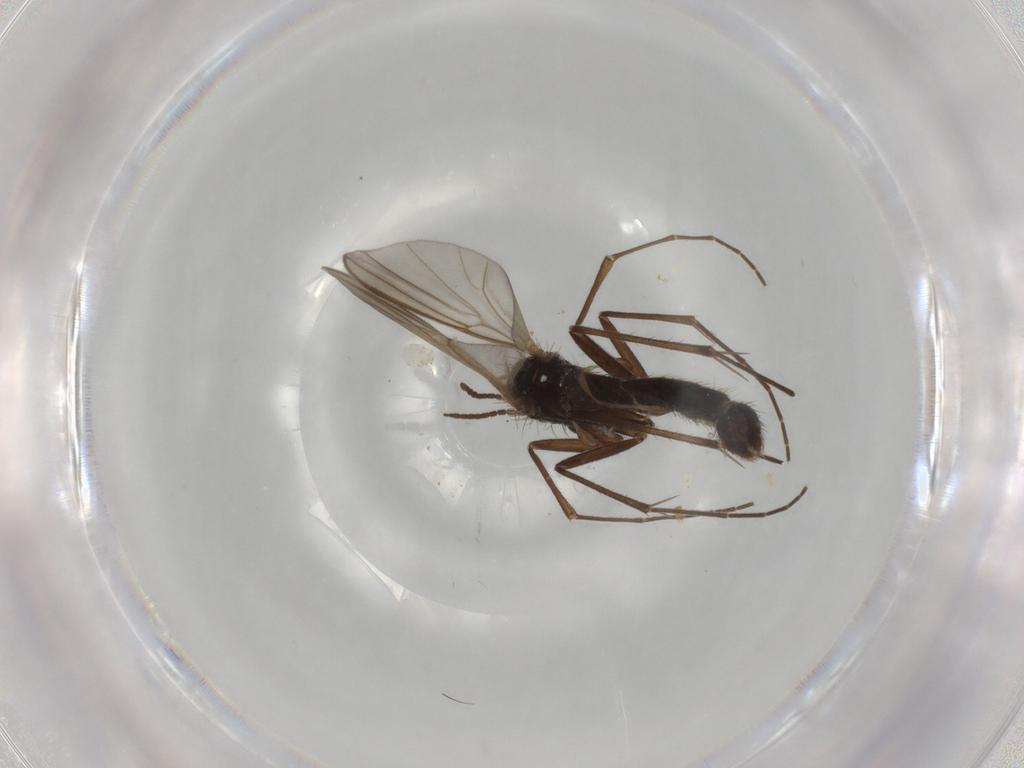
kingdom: Animalia
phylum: Arthropoda
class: Insecta
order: Diptera
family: Mycetophilidae
